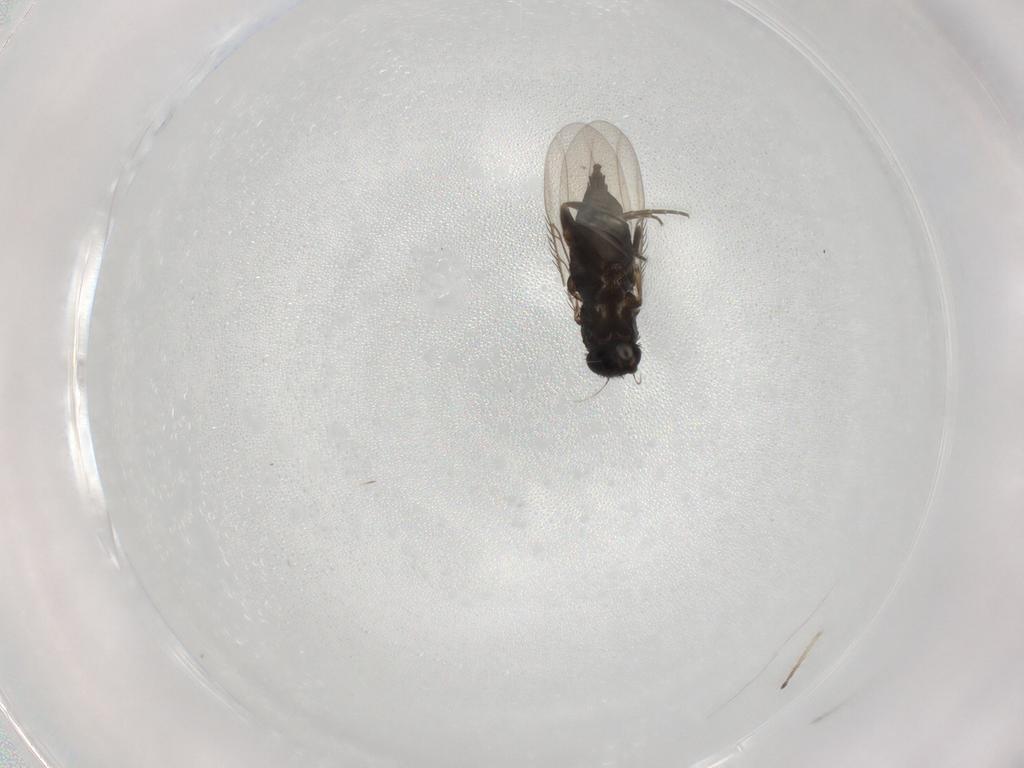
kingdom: Animalia
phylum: Arthropoda
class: Insecta
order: Diptera
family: Phoridae
